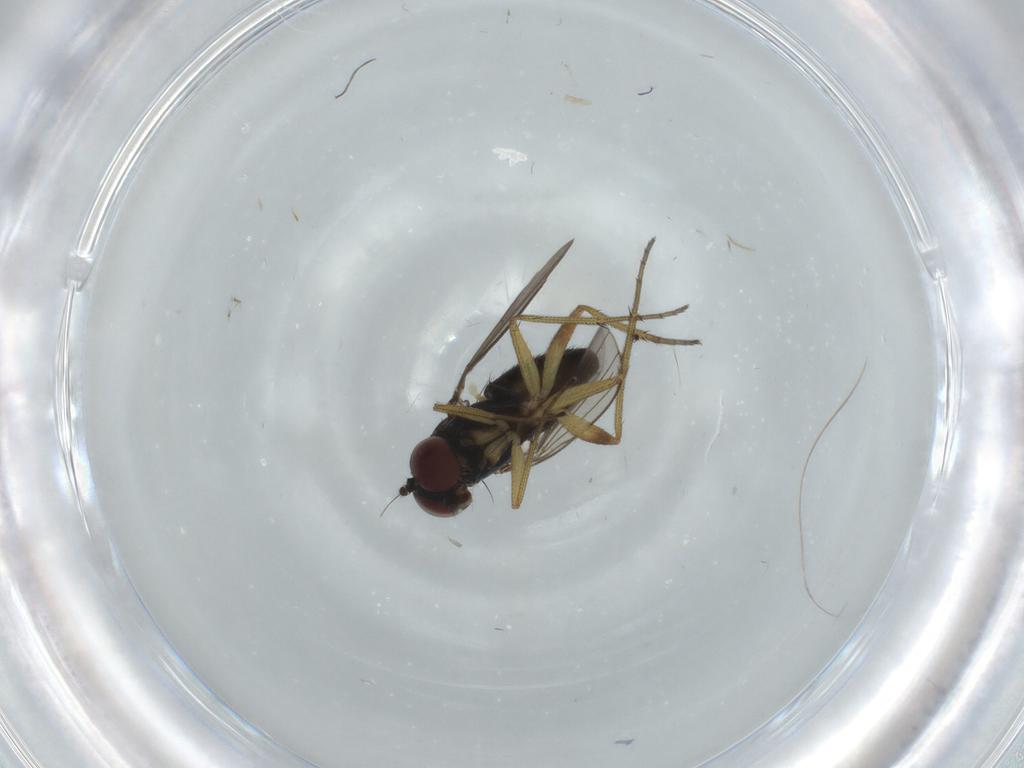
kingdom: Animalia
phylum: Arthropoda
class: Insecta
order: Diptera
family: Dolichopodidae
